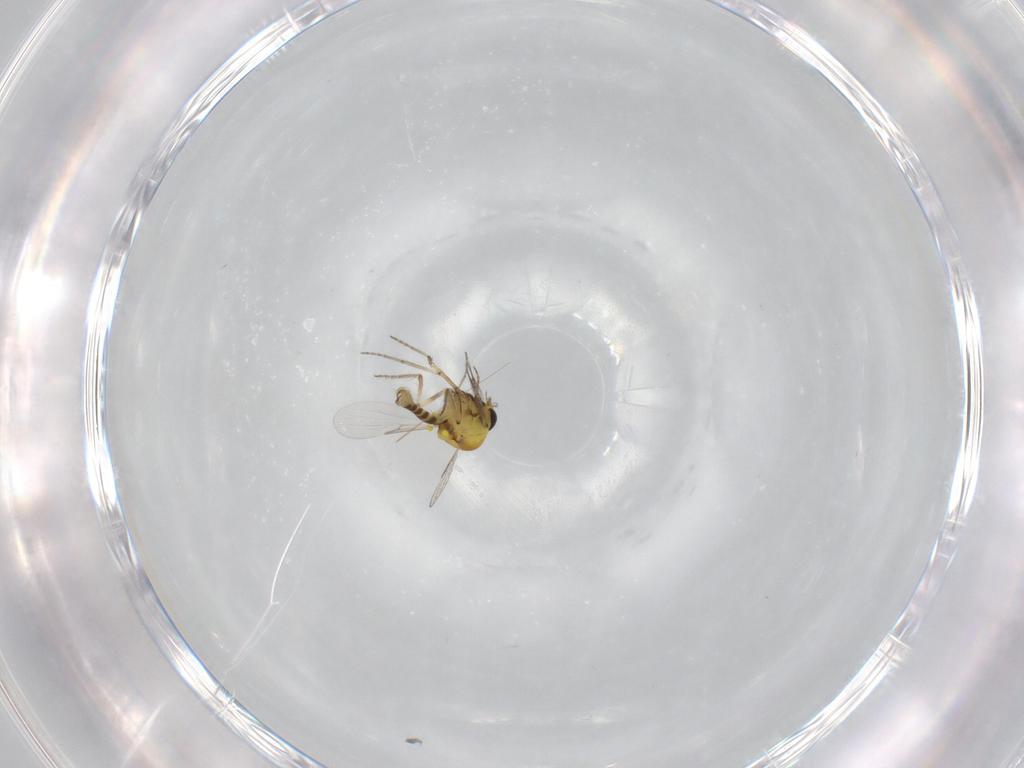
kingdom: Animalia
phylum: Arthropoda
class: Insecta
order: Diptera
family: Ceratopogonidae
